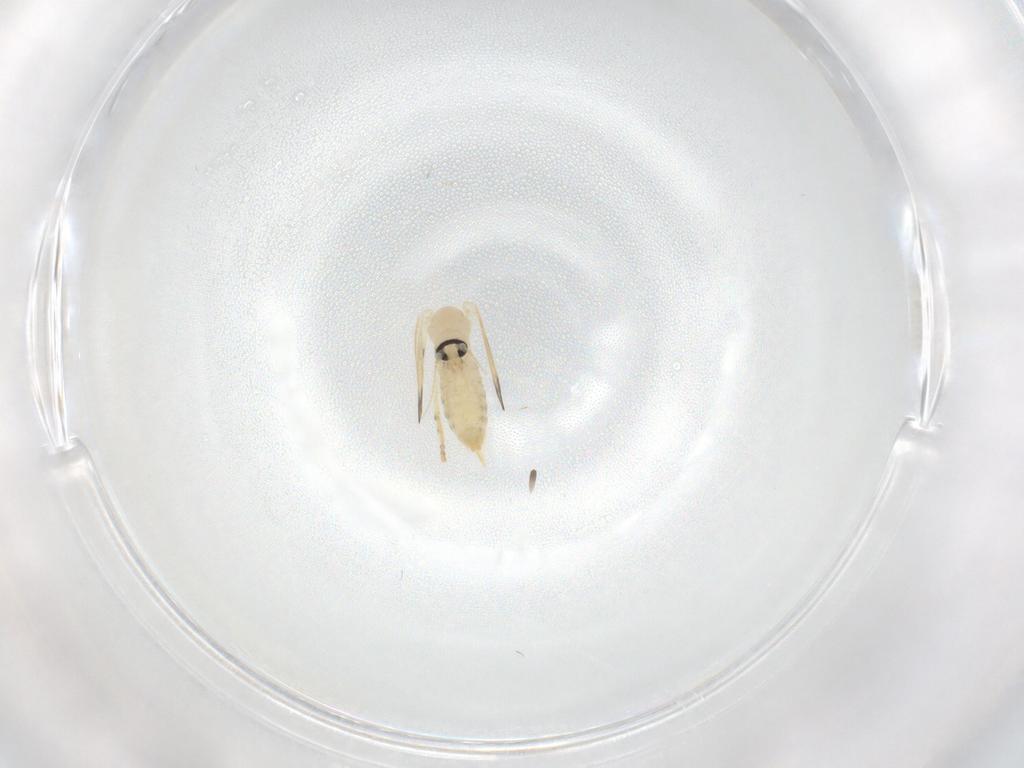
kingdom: Animalia
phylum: Arthropoda
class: Insecta
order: Diptera
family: Psychodidae
